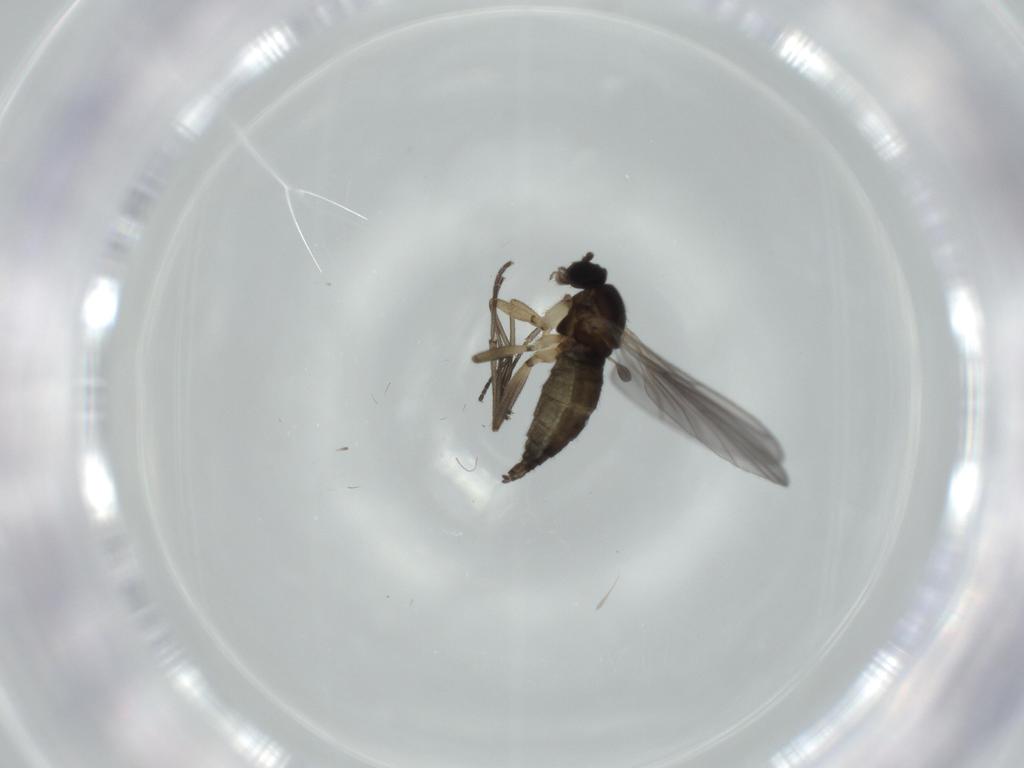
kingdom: Animalia
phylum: Arthropoda
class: Insecta
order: Diptera
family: Sciaridae
